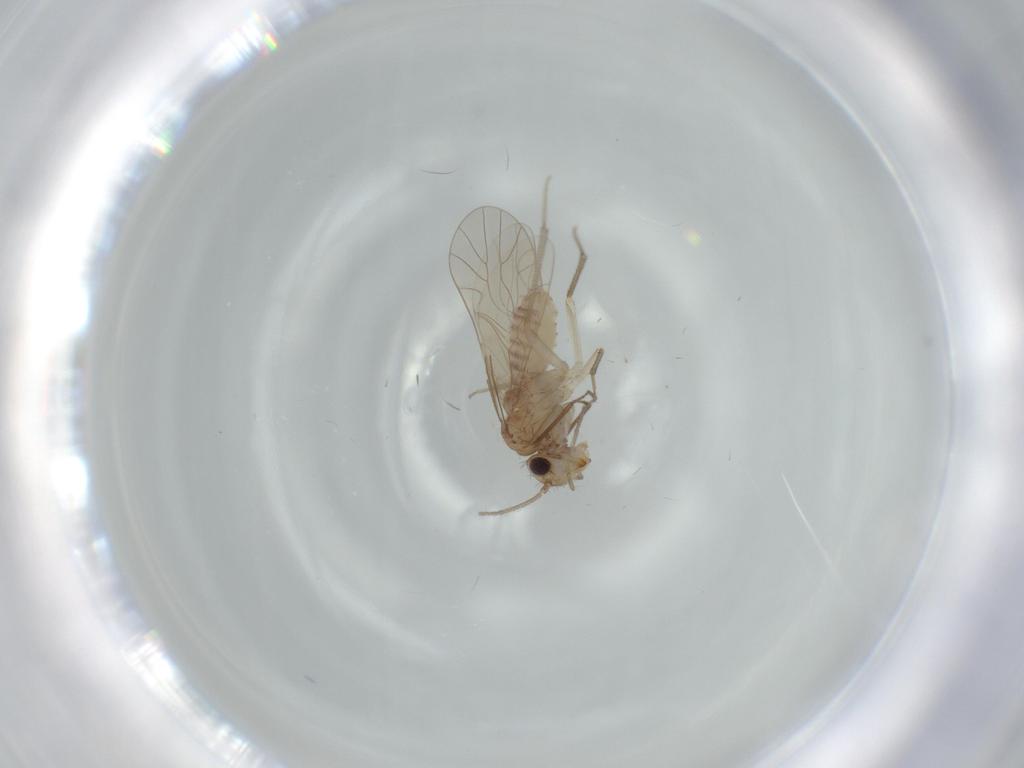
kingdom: Animalia
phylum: Arthropoda
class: Insecta
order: Psocodea
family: Caeciliusidae
